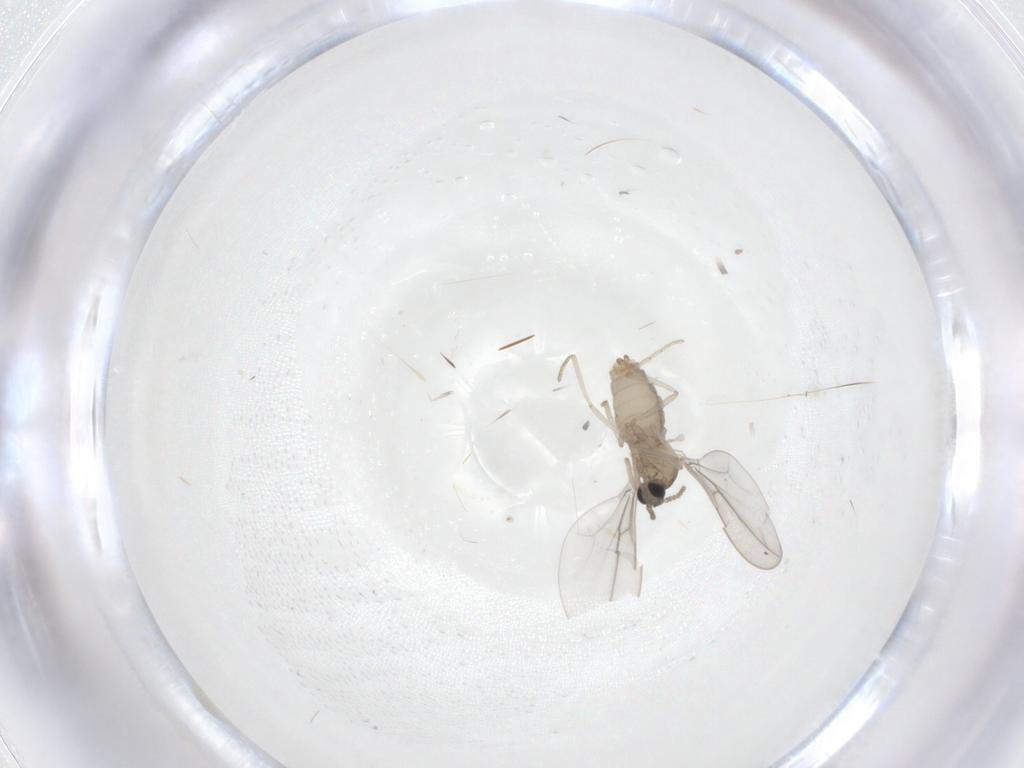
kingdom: Animalia
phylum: Arthropoda
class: Insecta
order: Diptera
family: Cecidomyiidae
